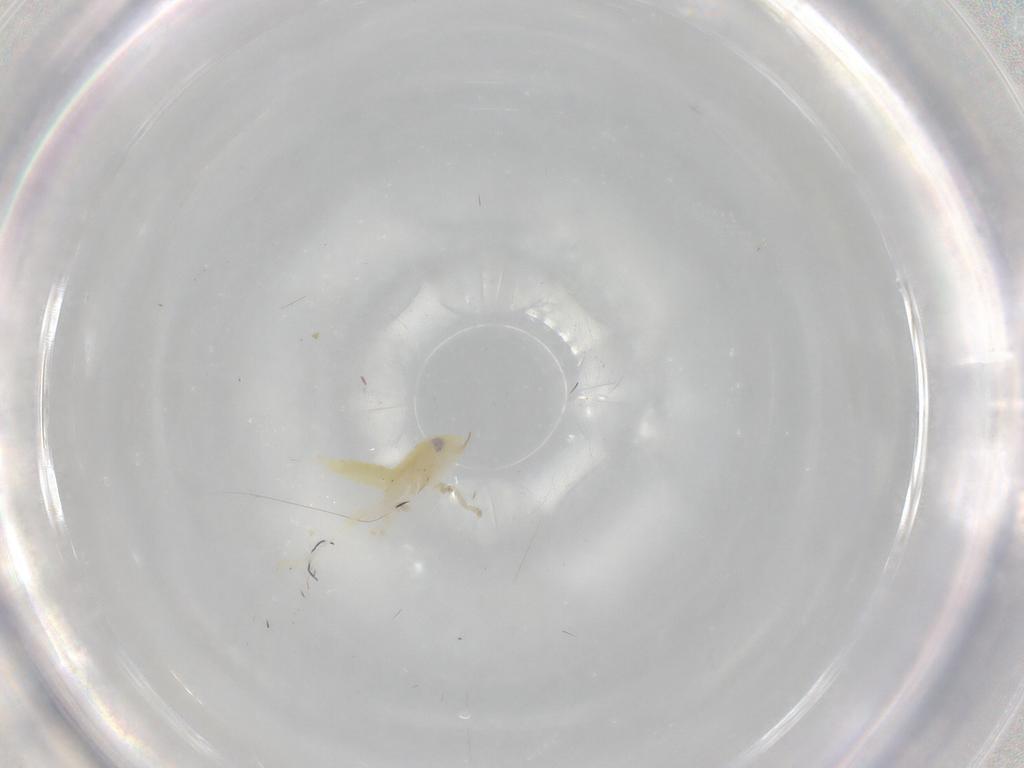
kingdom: Animalia
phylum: Arthropoda
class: Insecta
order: Hemiptera
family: Cicadellidae
